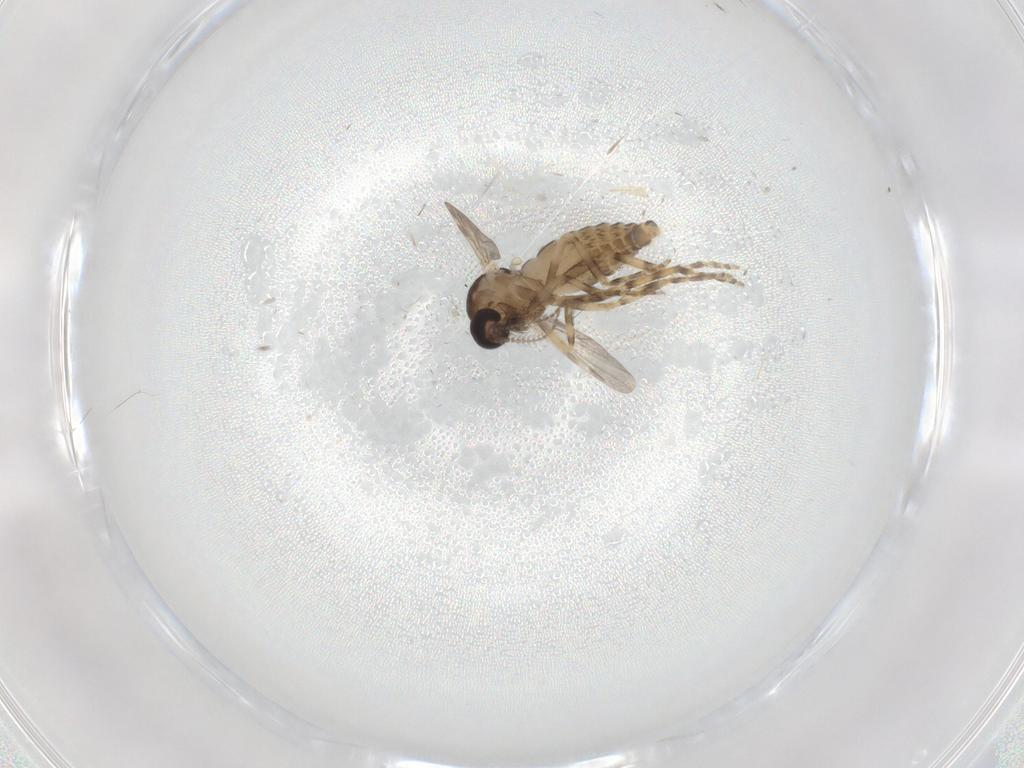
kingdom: Animalia
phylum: Arthropoda
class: Insecta
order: Diptera
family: Ceratopogonidae
